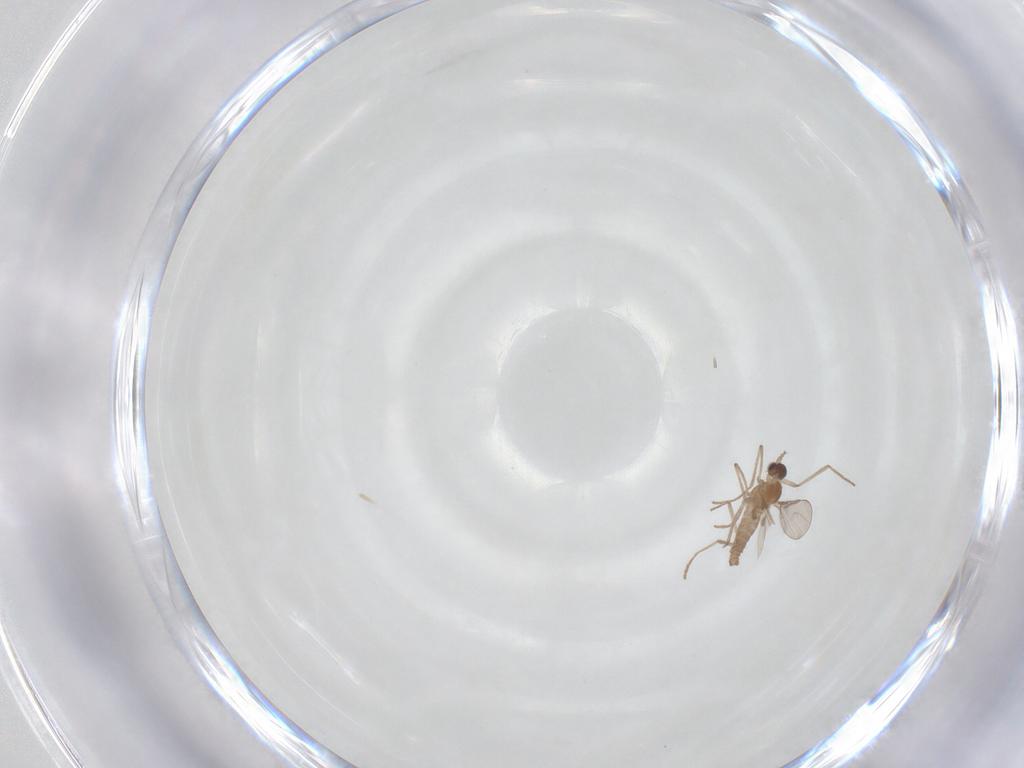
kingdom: Animalia
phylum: Arthropoda
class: Insecta
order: Diptera
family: Cecidomyiidae
